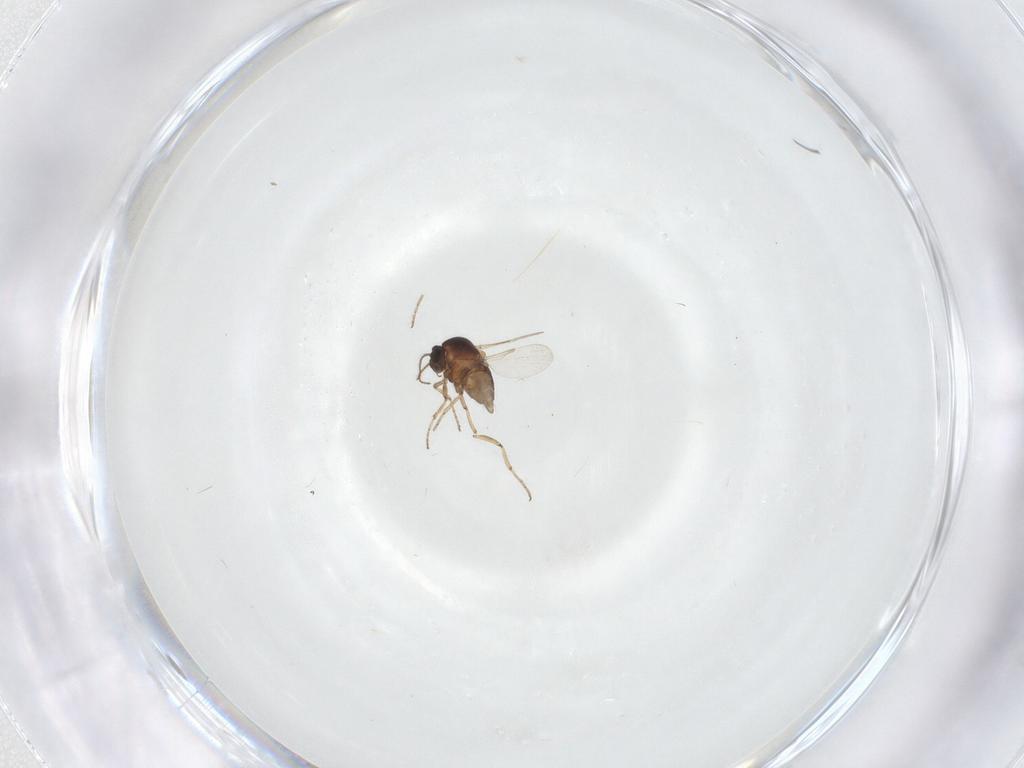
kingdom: Animalia
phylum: Arthropoda
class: Insecta
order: Diptera
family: Ceratopogonidae
